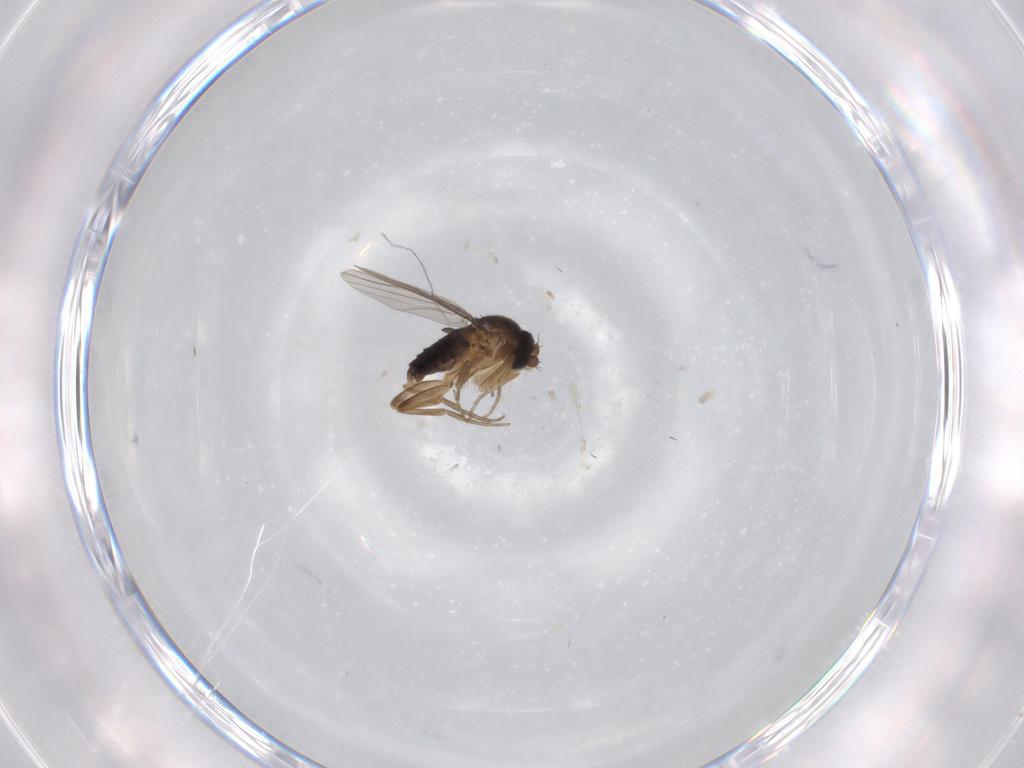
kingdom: Animalia
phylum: Arthropoda
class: Insecta
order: Diptera
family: Phoridae
